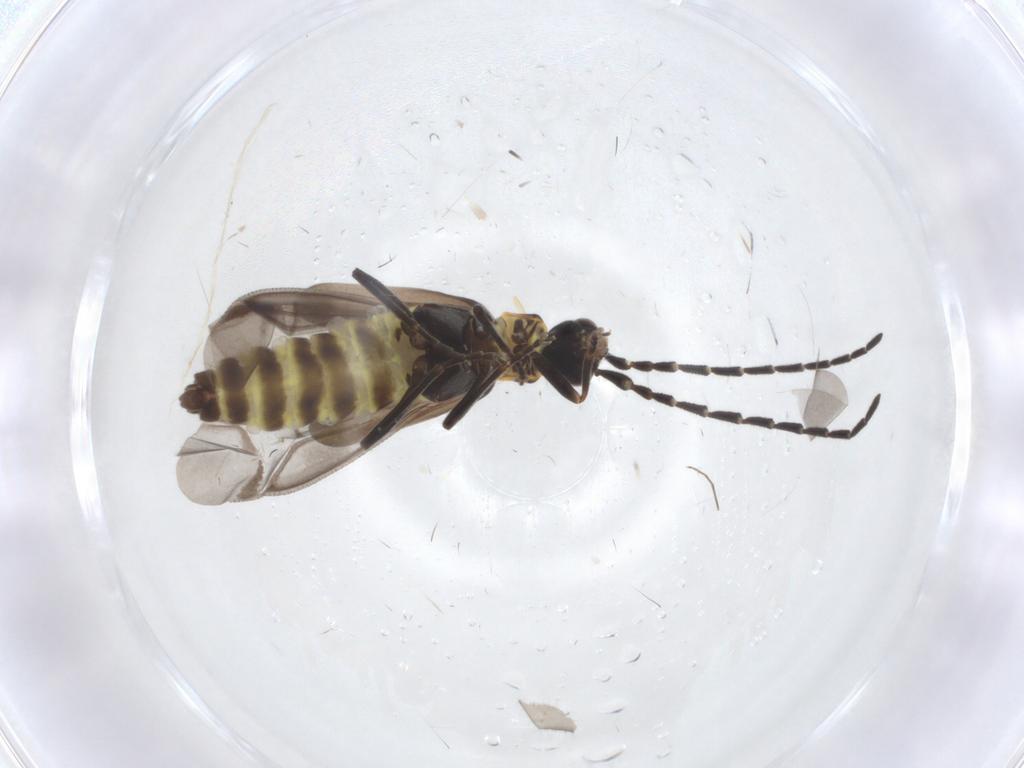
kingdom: Animalia
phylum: Arthropoda
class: Insecta
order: Coleoptera
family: Cantharidae
